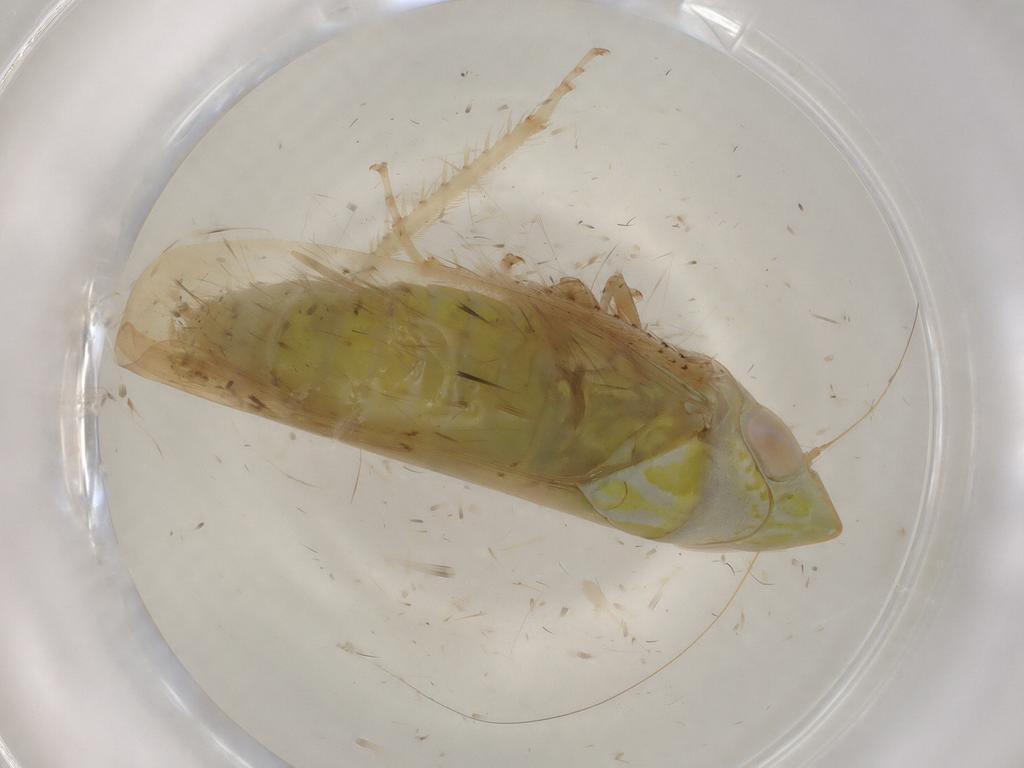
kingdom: Animalia
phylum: Arthropoda
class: Insecta
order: Hemiptera
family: Cicadellidae
